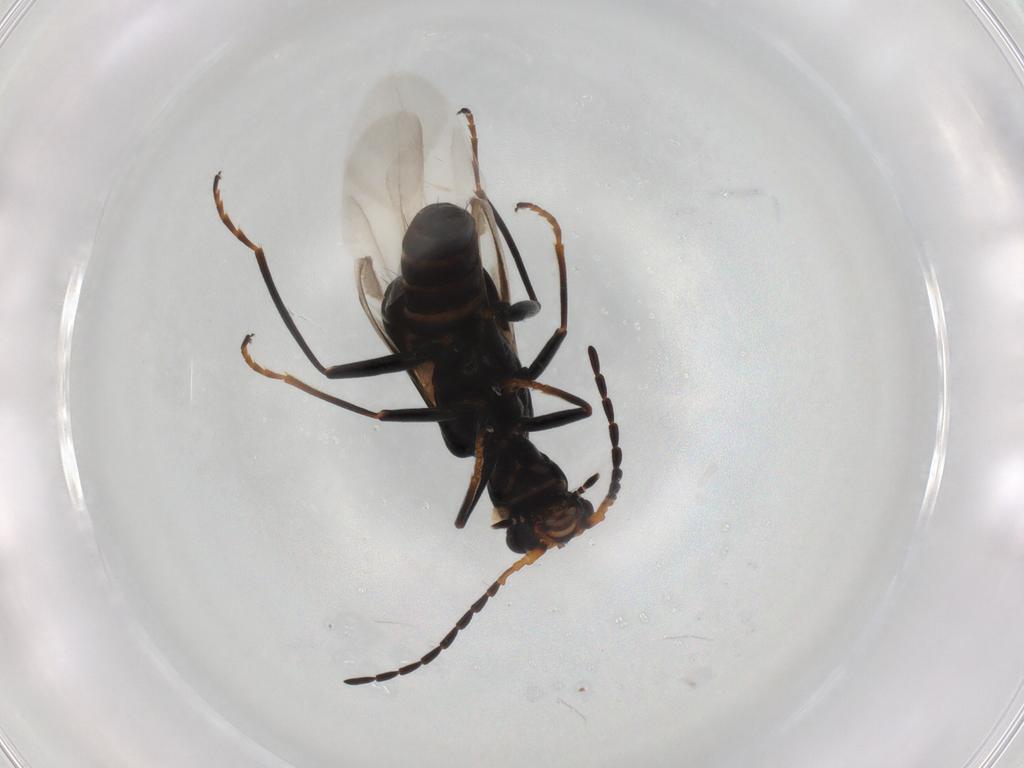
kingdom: Animalia
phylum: Arthropoda
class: Insecta
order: Coleoptera
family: Melyridae
